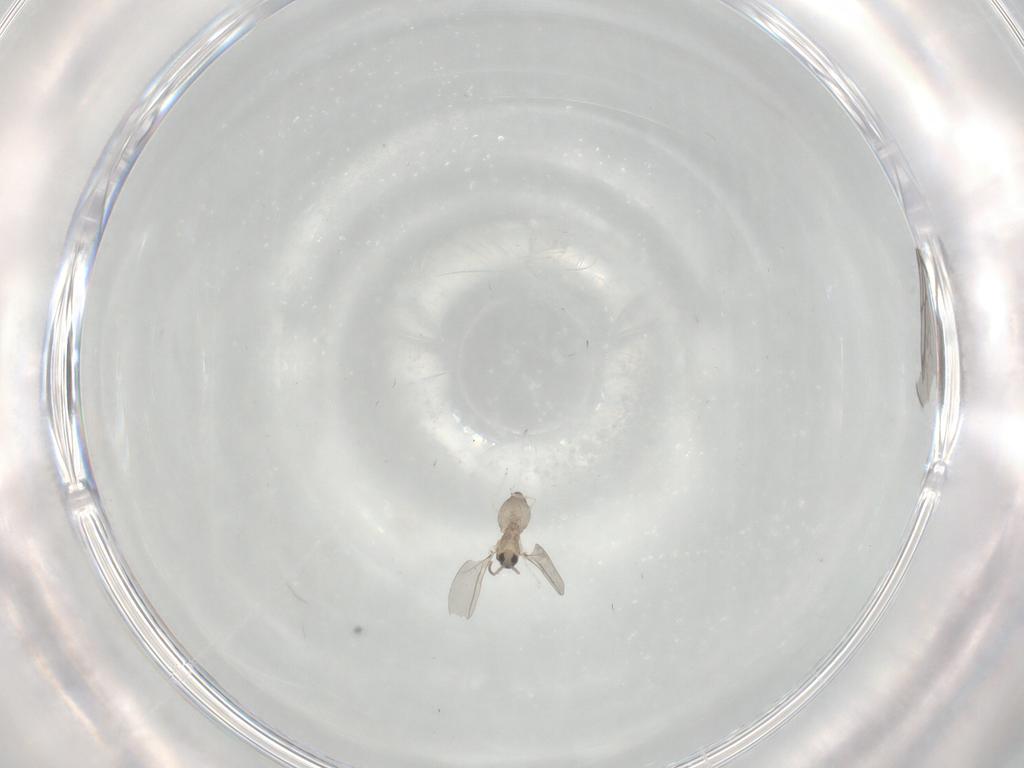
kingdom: Animalia
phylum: Arthropoda
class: Insecta
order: Diptera
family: Cecidomyiidae
